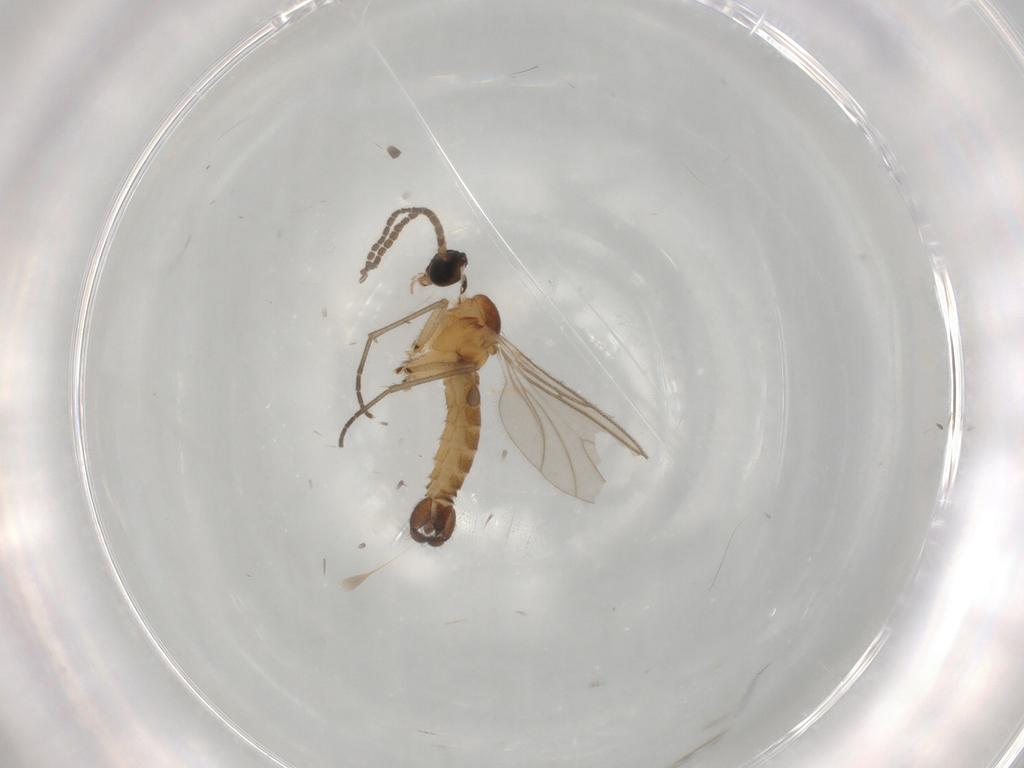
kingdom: Animalia
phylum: Arthropoda
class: Insecta
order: Diptera
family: Sciaridae
